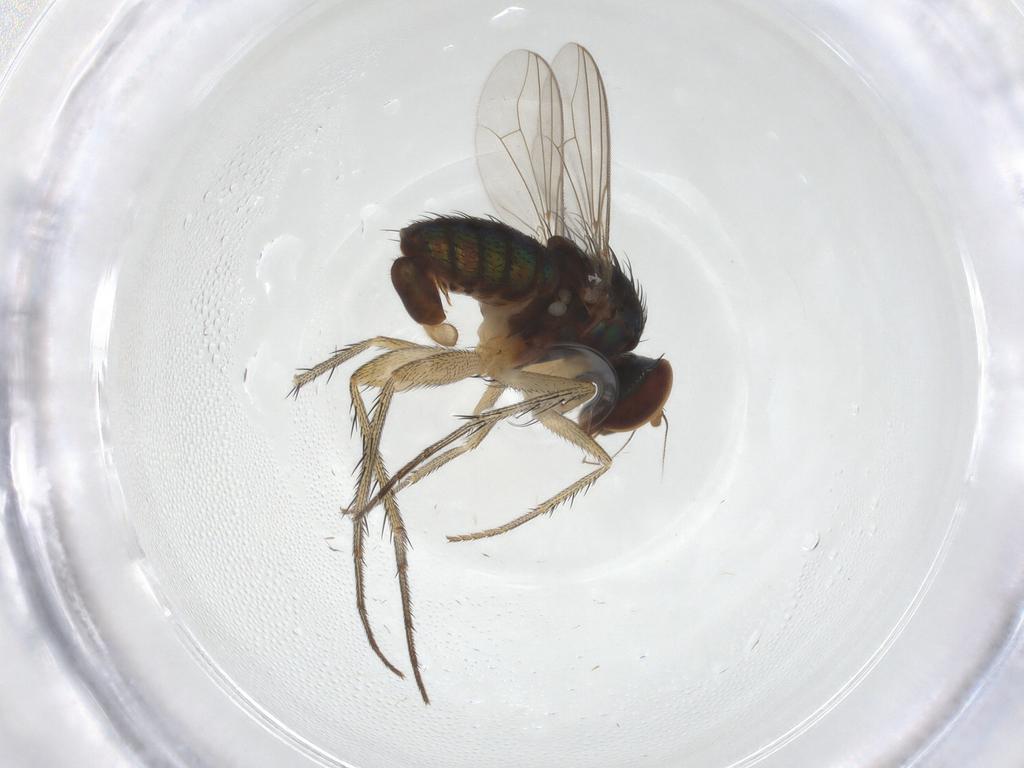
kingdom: Animalia
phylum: Arthropoda
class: Insecta
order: Diptera
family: Dolichopodidae
